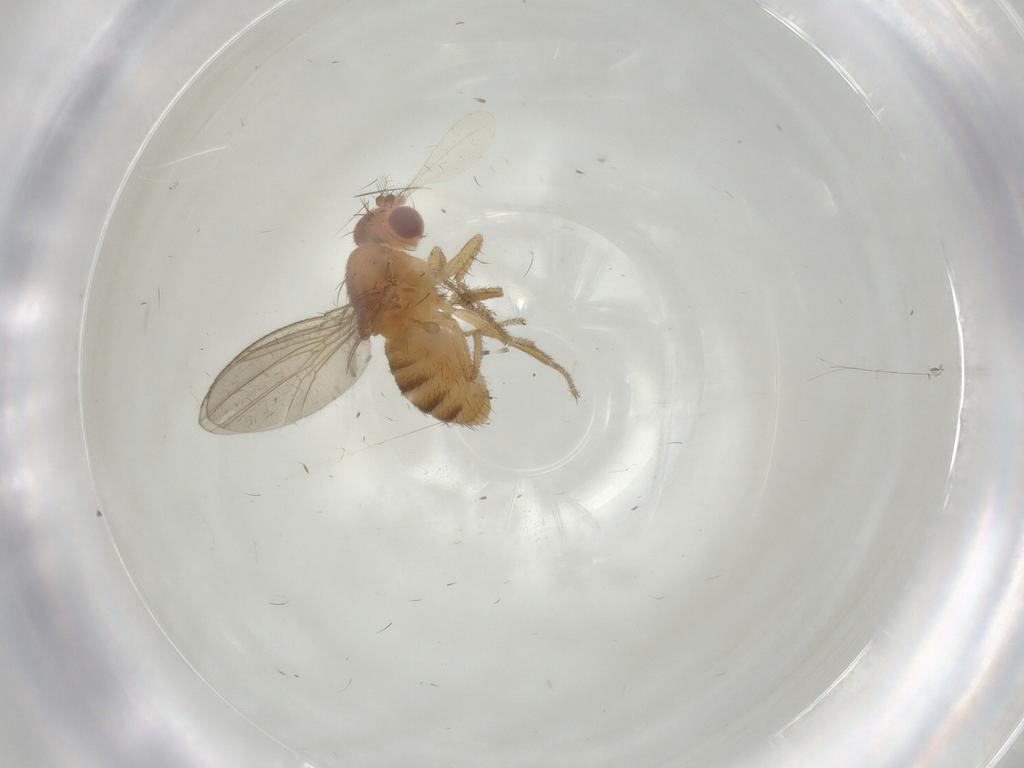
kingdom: Animalia
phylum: Arthropoda
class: Insecta
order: Diptera
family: Drosophilidae
